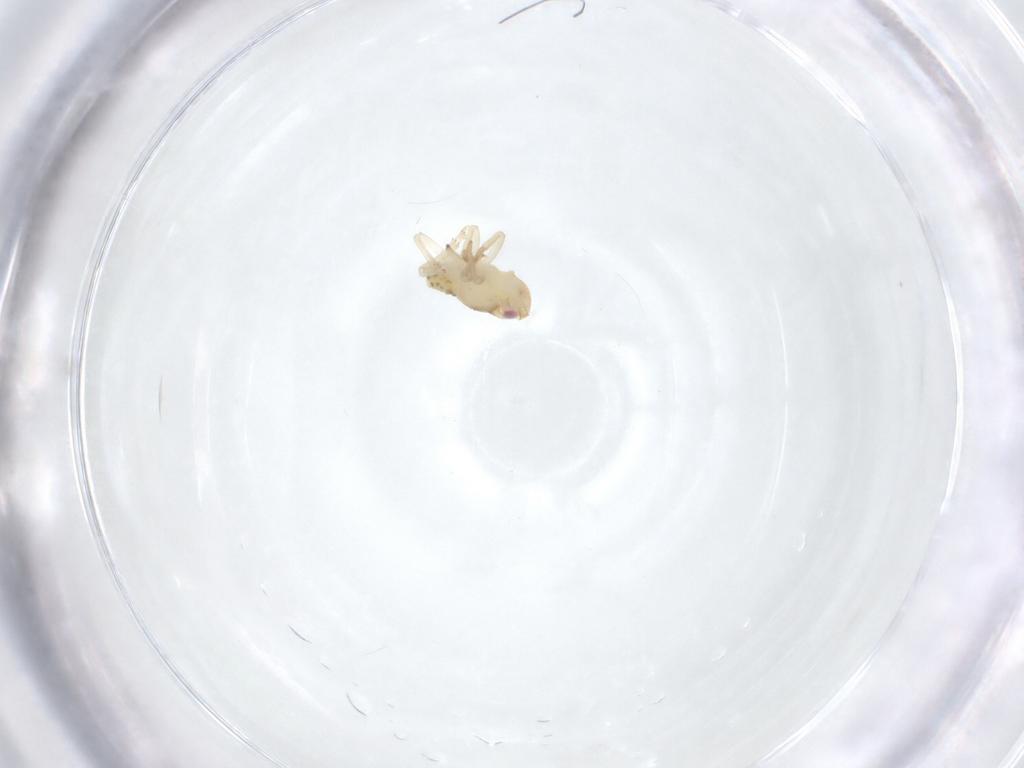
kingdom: Animalia
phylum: Arthropoda
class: Insecta
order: Hemiptera
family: Tropiduchidae
